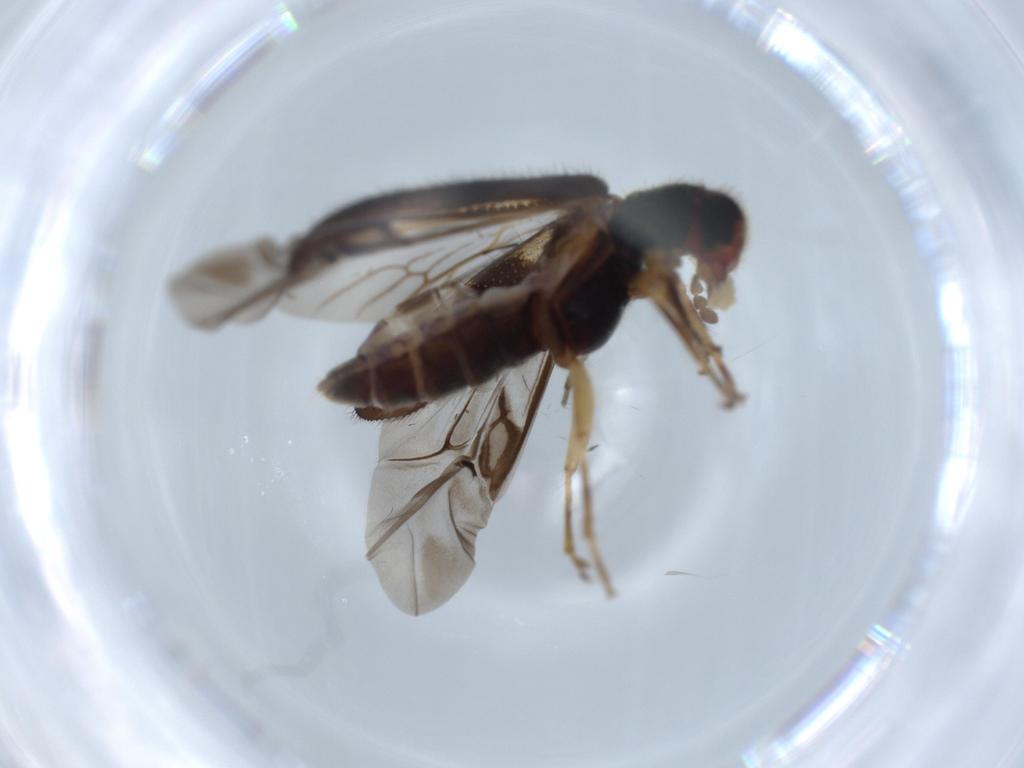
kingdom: Animalia
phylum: Arthropoda
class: Insecta
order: Coleoptera
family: Cleridae
